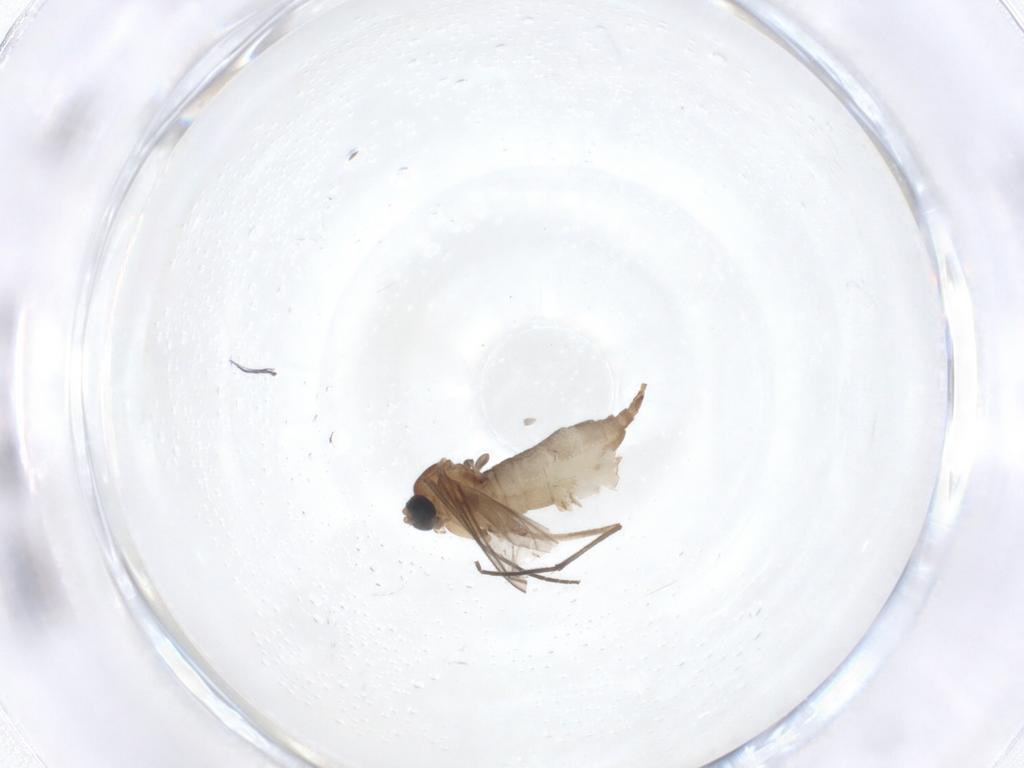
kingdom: Animalia
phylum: Arthropoda
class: Insecta
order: Diptera
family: Sciaridae
